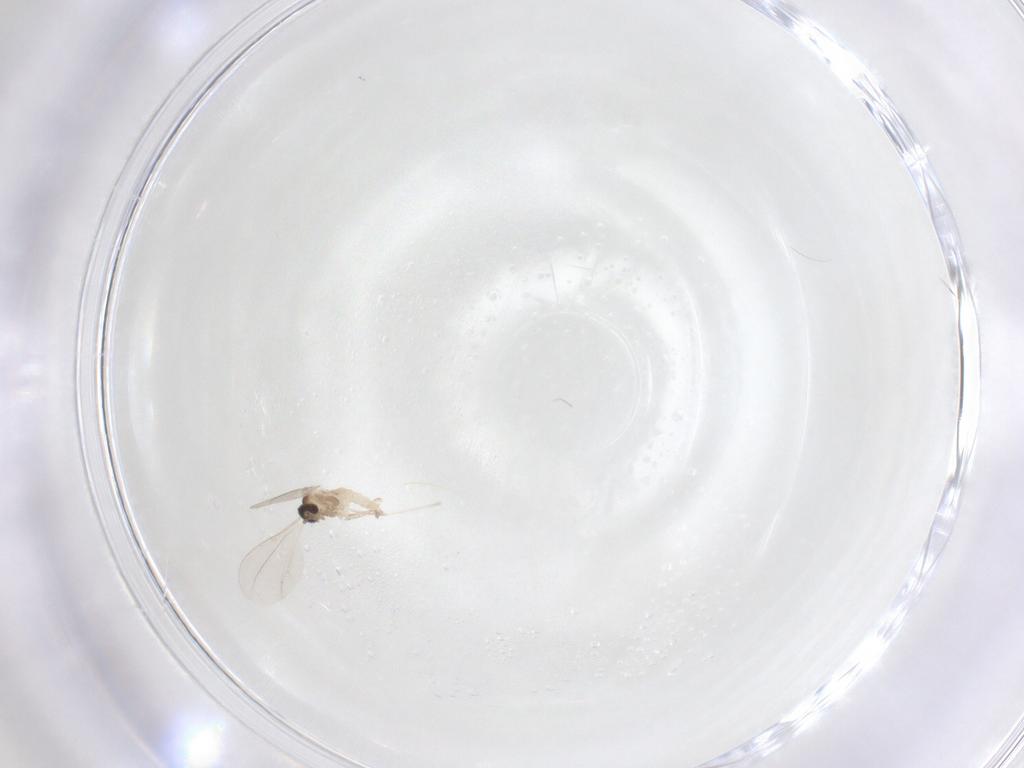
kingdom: Animalia
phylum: Arthropoda
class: Insecta
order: Diptera
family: Cecidomyiidae
